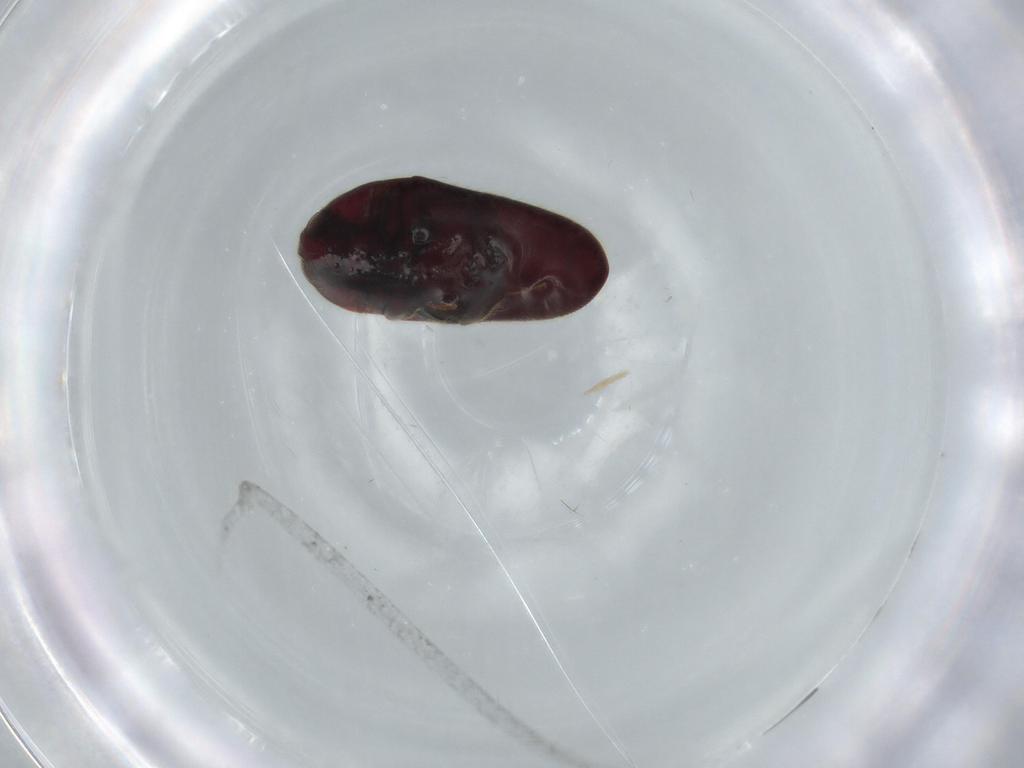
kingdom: Animalia
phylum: Arthropoda
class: Insecta
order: Coleoptera
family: Throscidae
